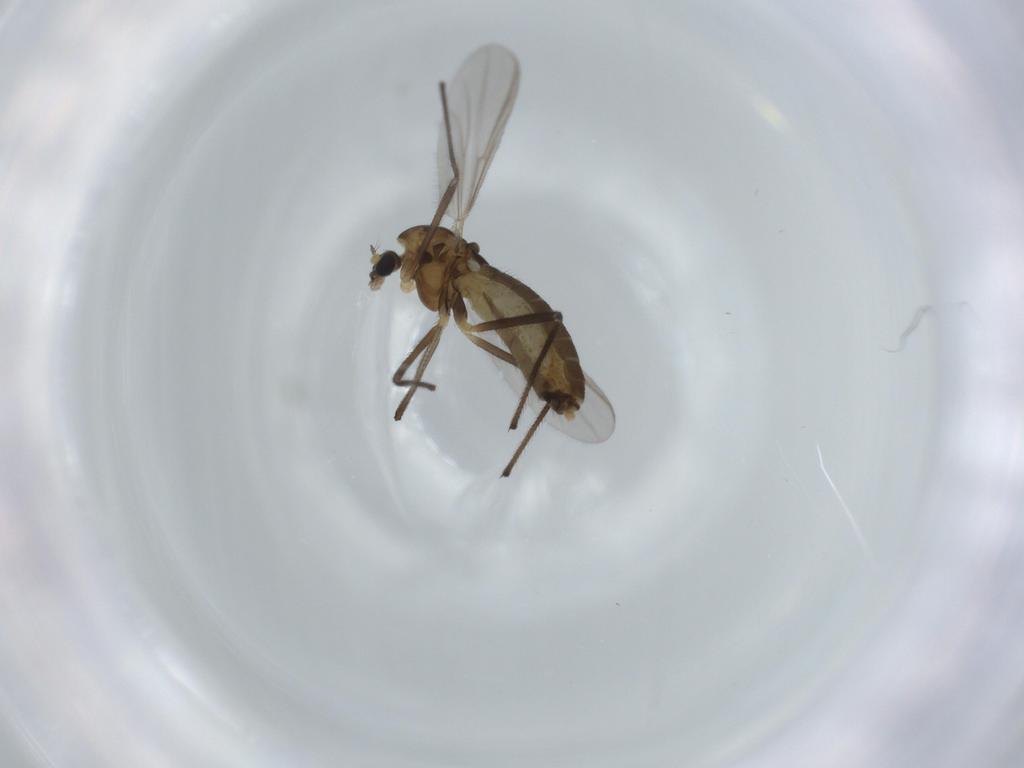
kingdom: Animalia
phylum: Arthropoda
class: Insecta
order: Diptera
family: Chironomidae
